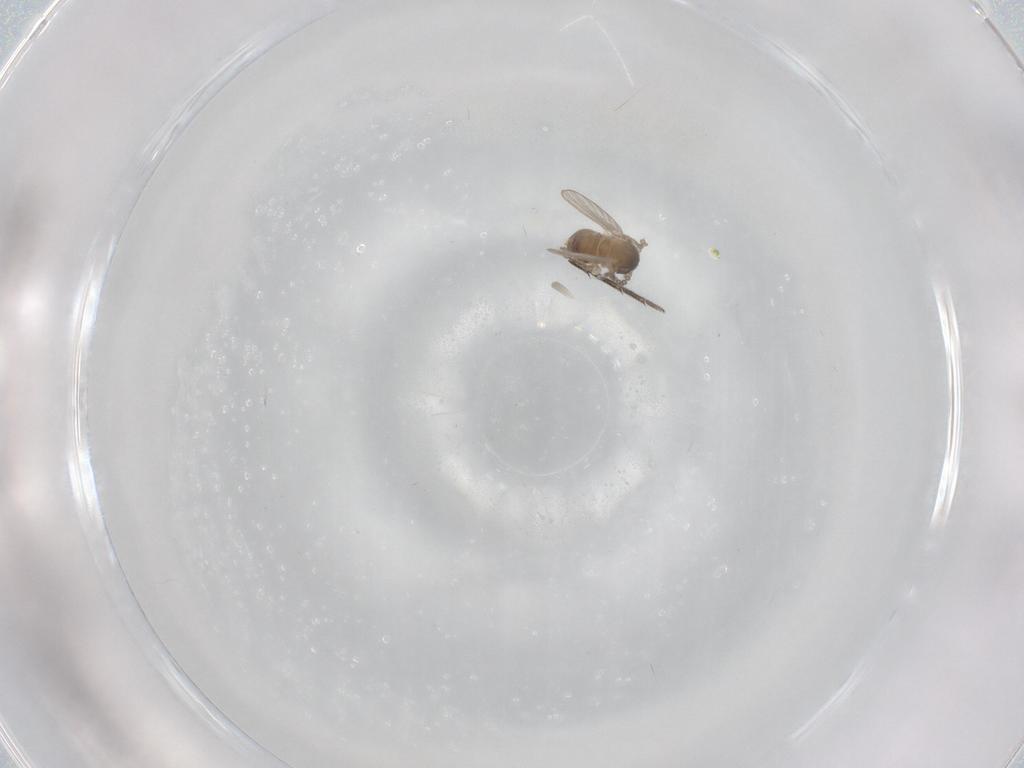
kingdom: Animalia
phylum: Arthropoda
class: Insecta
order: Diptera
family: Psychodidae
